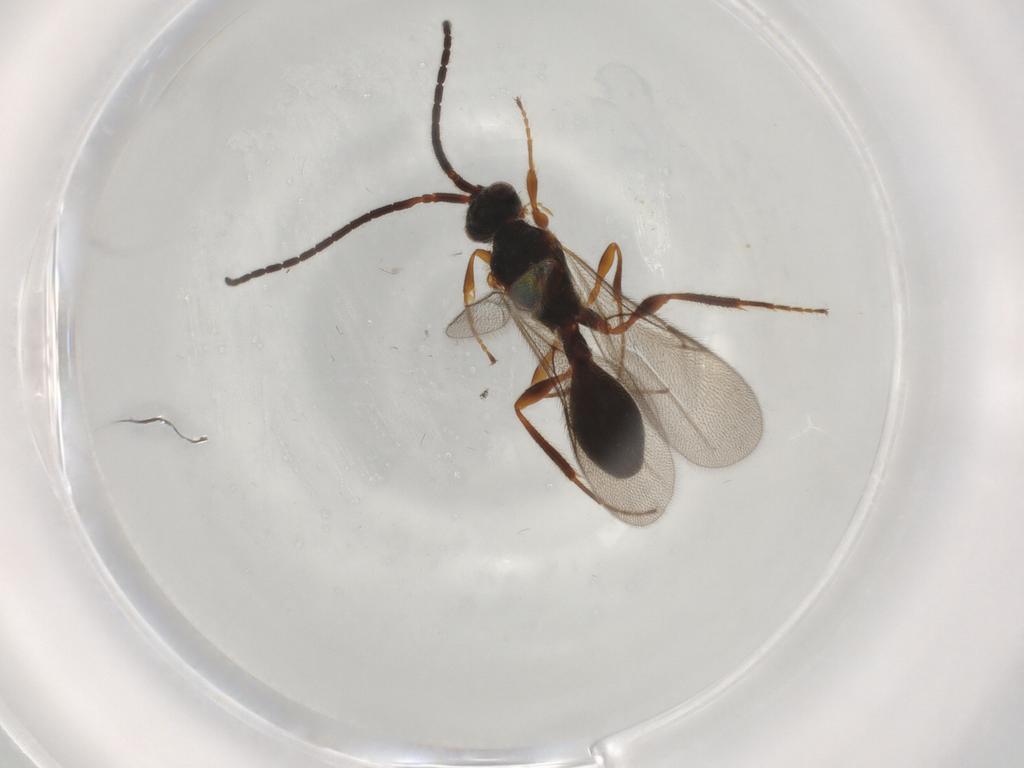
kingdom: Animalia
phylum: Arthropoda
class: Insecta
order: Hymenoptera
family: Diapriidae
